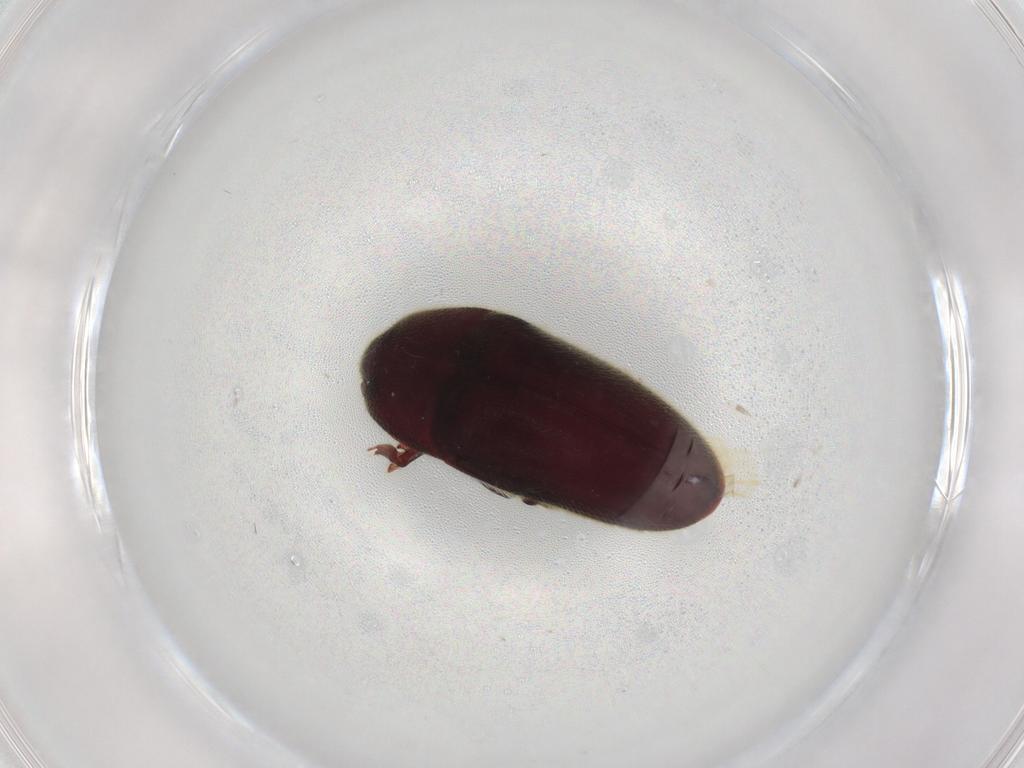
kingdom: Animalia
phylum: Arthropoda
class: Insecta
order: Coleoptera
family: Throscidae
